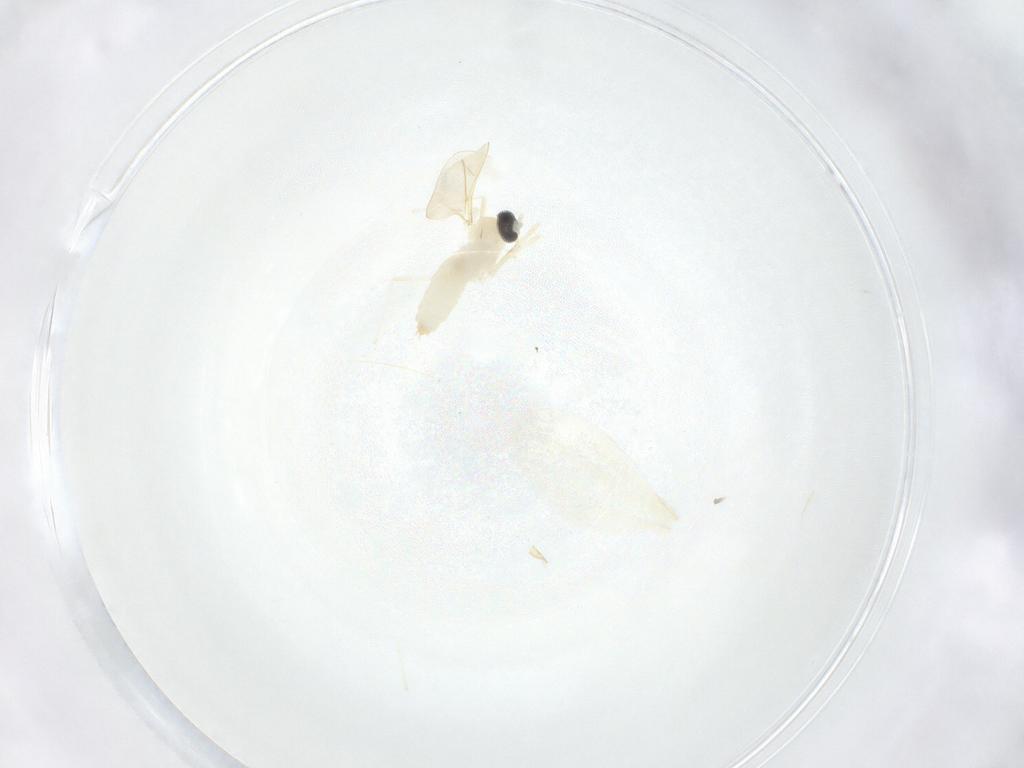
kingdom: Animalia
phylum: Arthropoda
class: Insecta
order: Diptera
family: Cecidomyiidae
